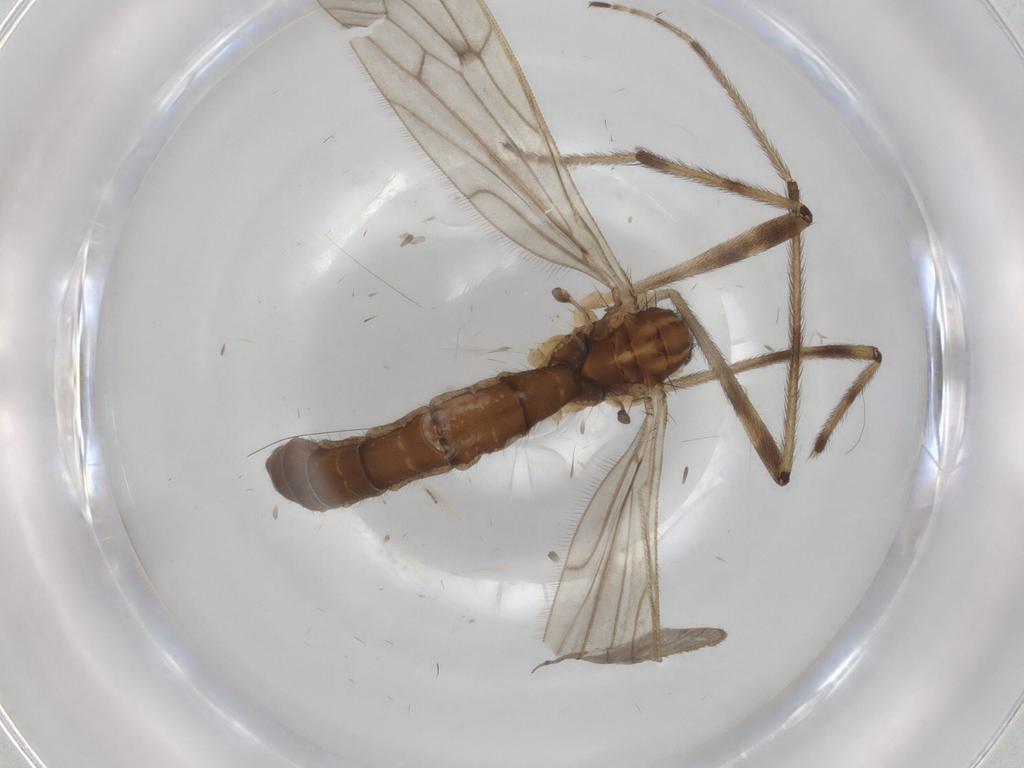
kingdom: Animalia
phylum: Arthropoda
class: Insecta
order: Diptera
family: Limoniidae
